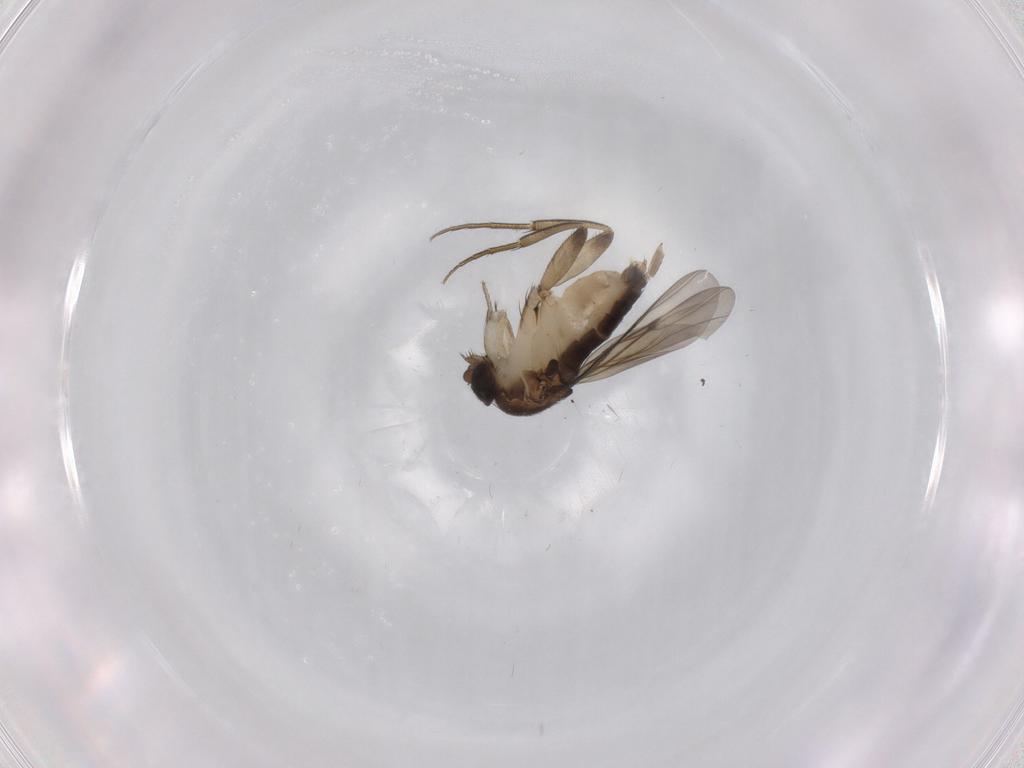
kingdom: Animalia
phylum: Arthropoda
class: Insecta
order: Diptera
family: Phoridae
